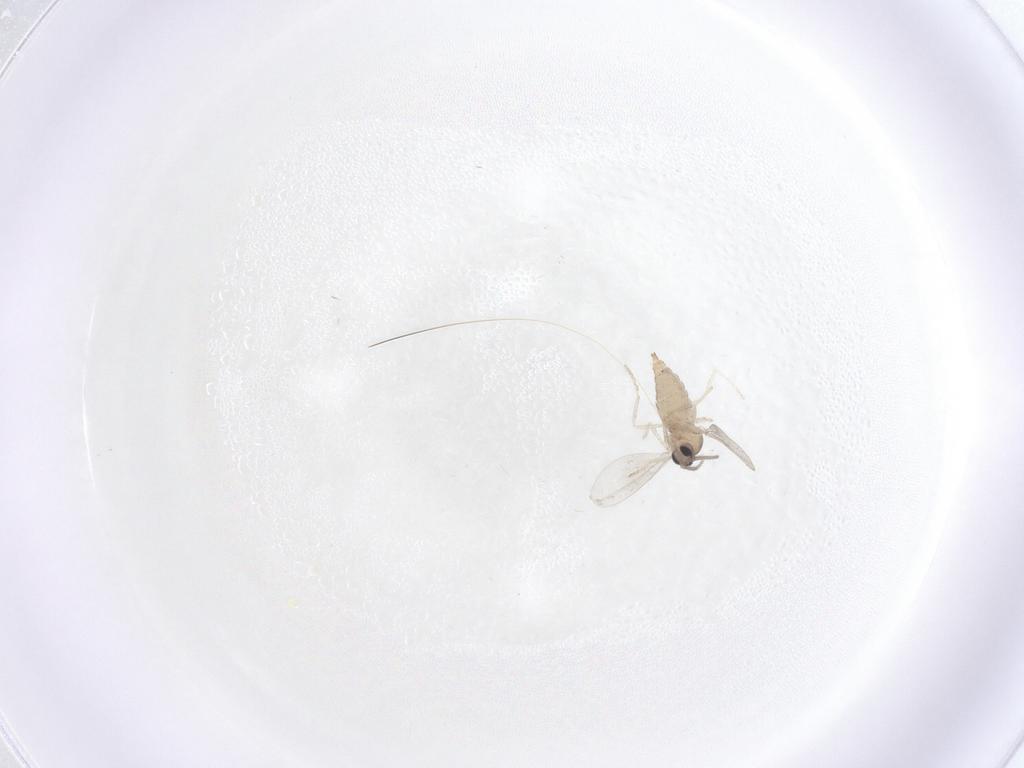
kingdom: Animalia
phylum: Arthropoda
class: Insecta
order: Diptera
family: Cecidomyiidae
